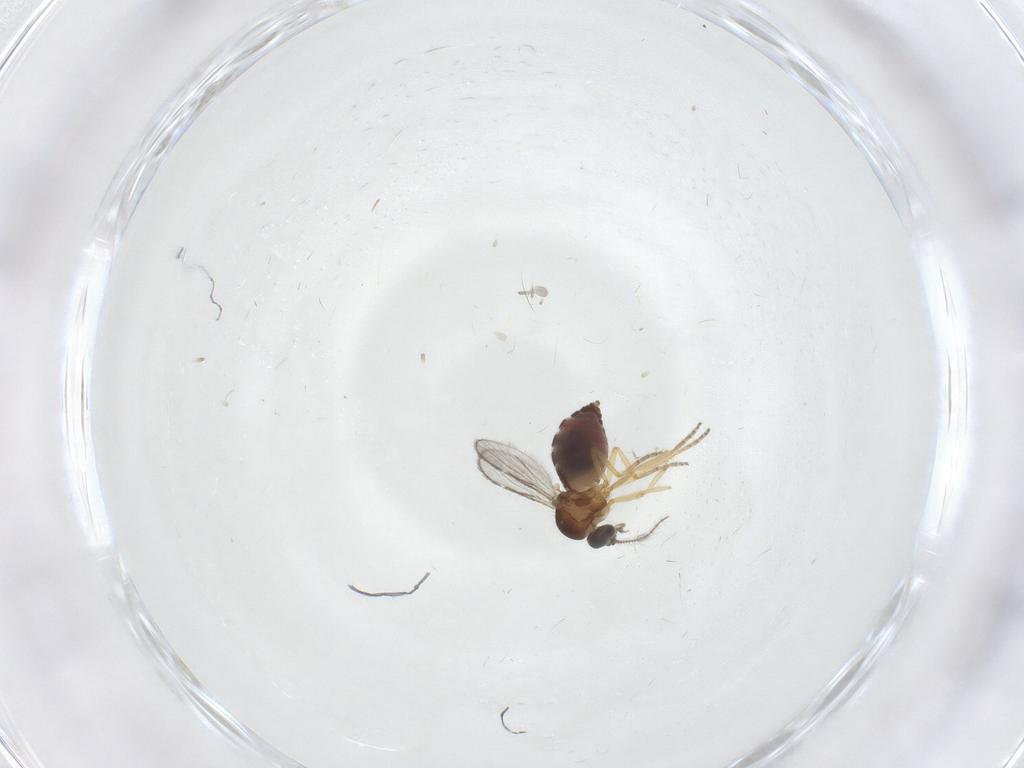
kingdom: Animalia
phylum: Arthropoda
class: Insecta
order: Diptera
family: Ceratopogonidae
